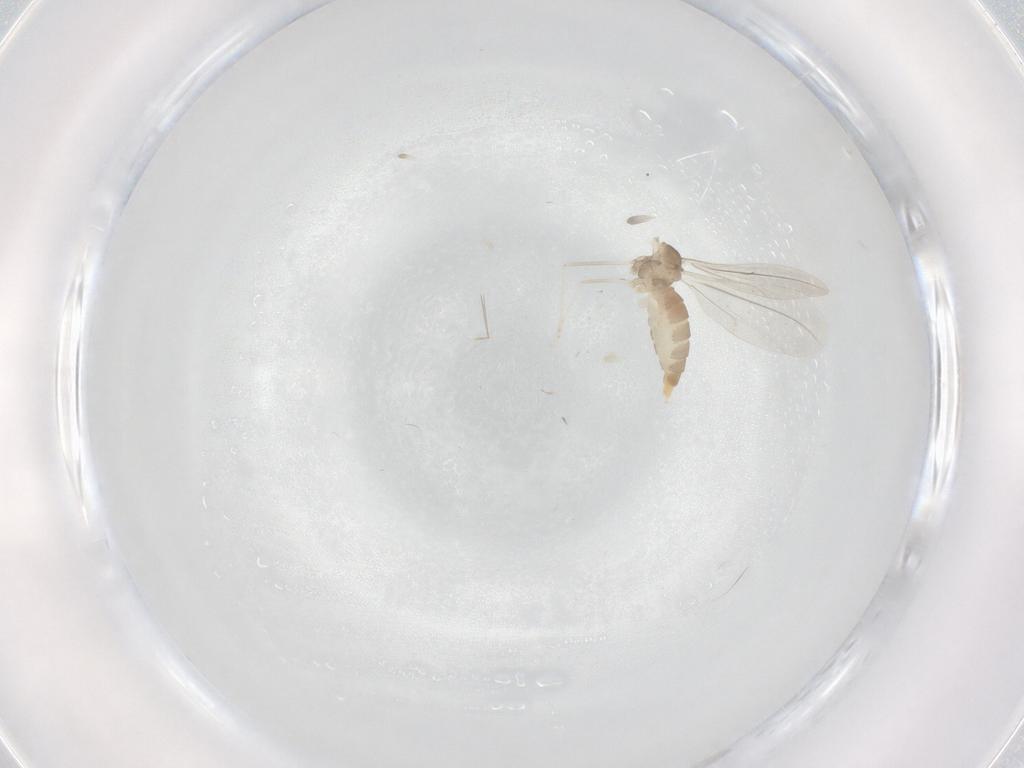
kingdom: Animalia
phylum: Arthropoda
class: Insecta
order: Diptera
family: Cecidomyiidae
